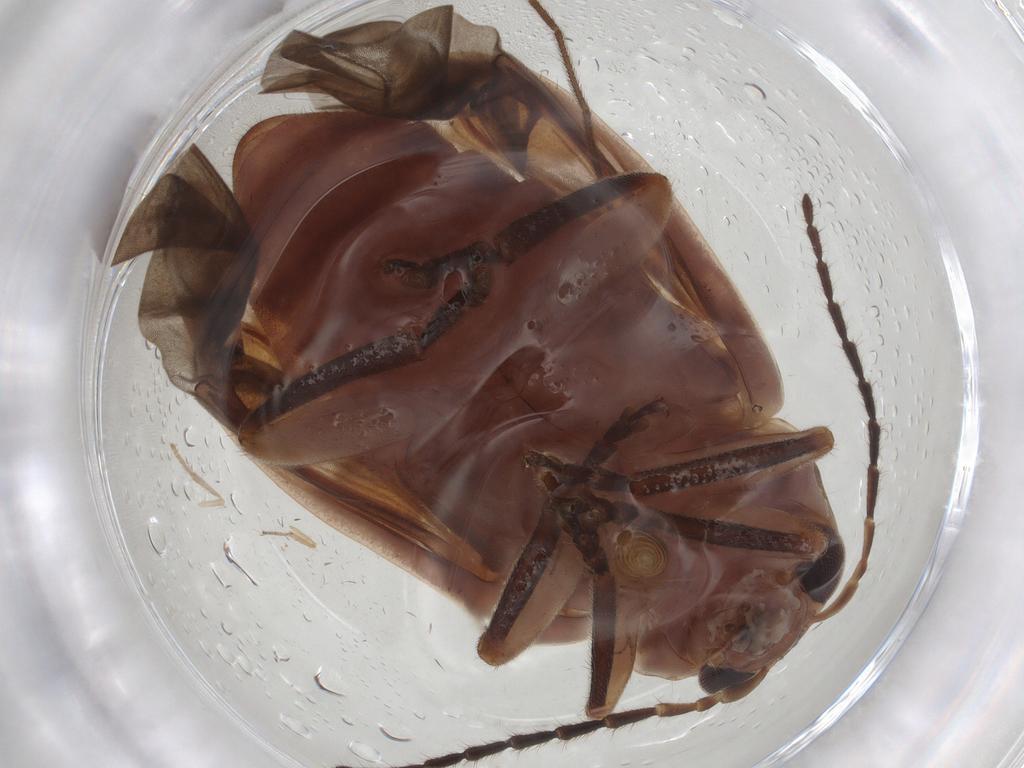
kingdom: Animalia
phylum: Arthropoda
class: Insecta
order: Coleoptera
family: Chrysomelidae
